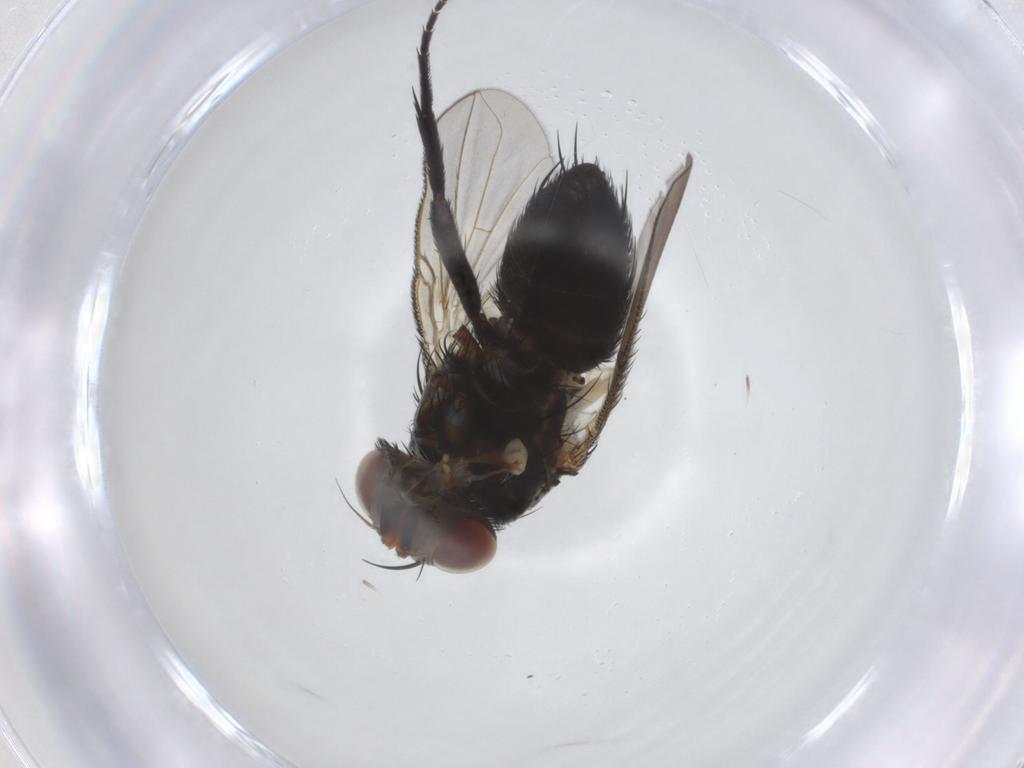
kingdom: Animalia
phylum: Arthropoda
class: Insecta
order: Diptera
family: Tachinidae
